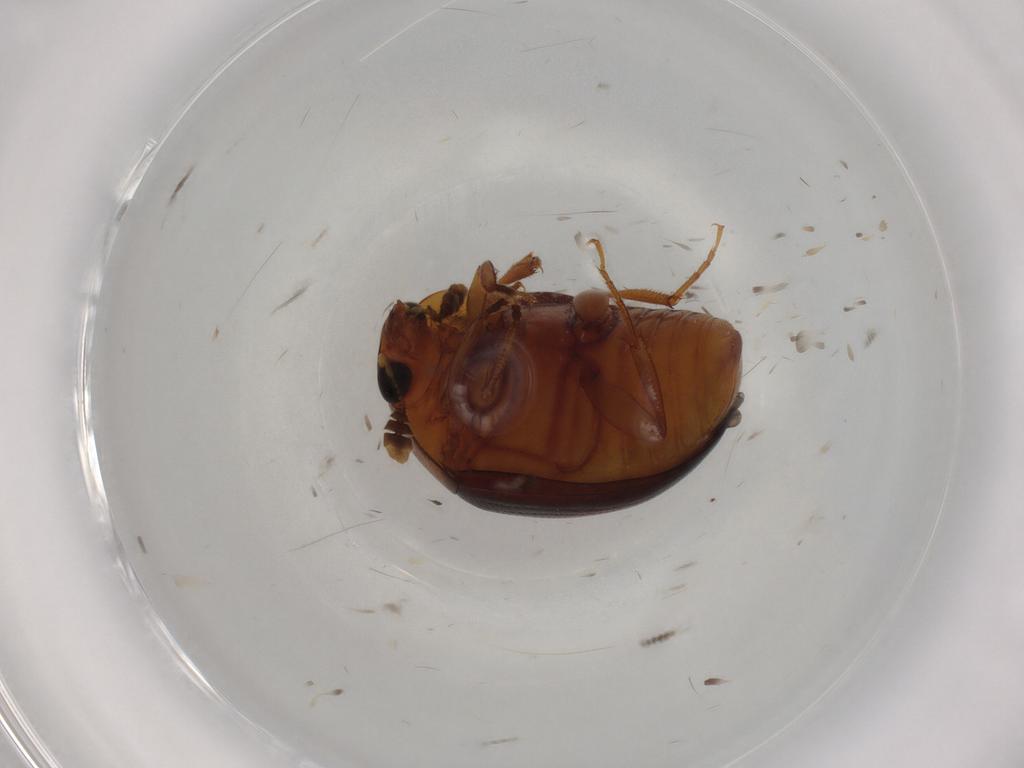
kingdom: Animalia
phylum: Arthropoda
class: Insecta
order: Coleoptera
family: Nitidulidae
